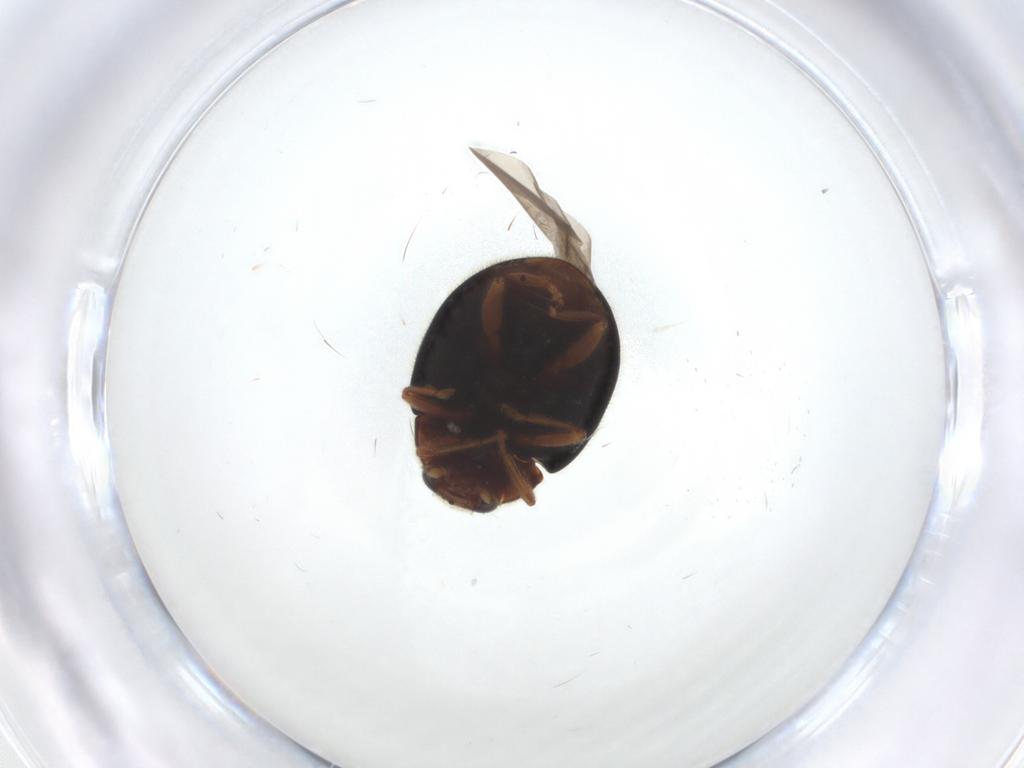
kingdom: Animalia
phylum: Arthropoda
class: Insecta
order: Coleoptera
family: Coccinellidae
